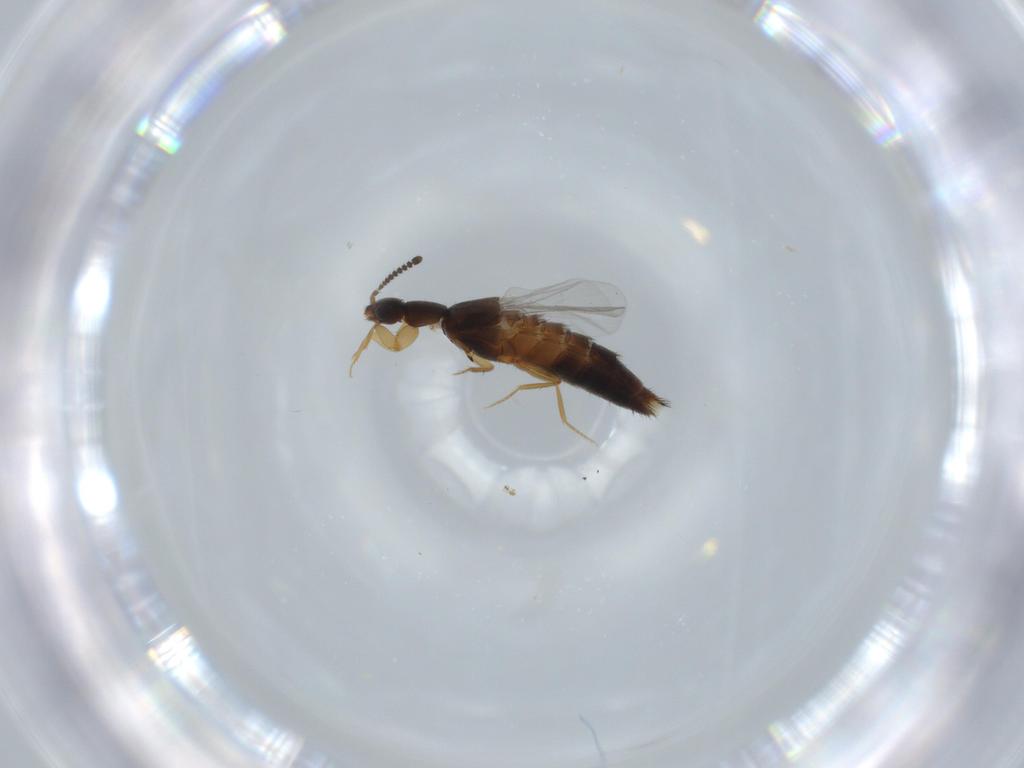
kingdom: Animalia
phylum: Arthropoda
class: Insecta
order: Coleoptera
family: Staphylinidae
